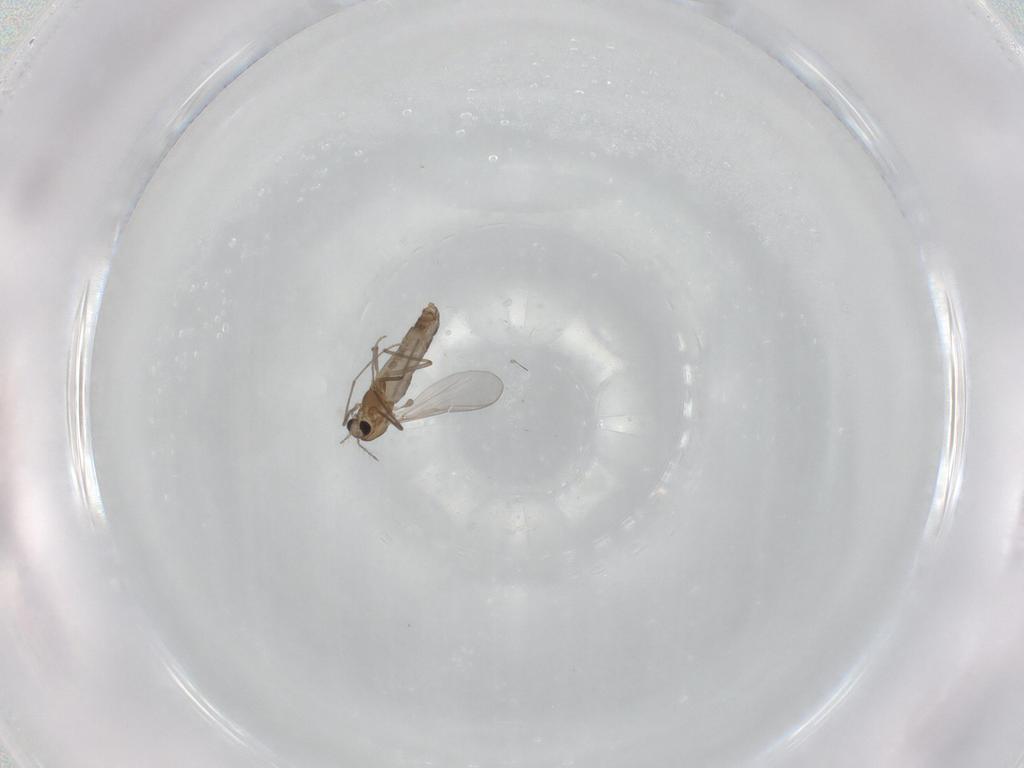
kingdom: Animalia
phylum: Arthropoda
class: Insecta
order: Diptera
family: Chironomidae
